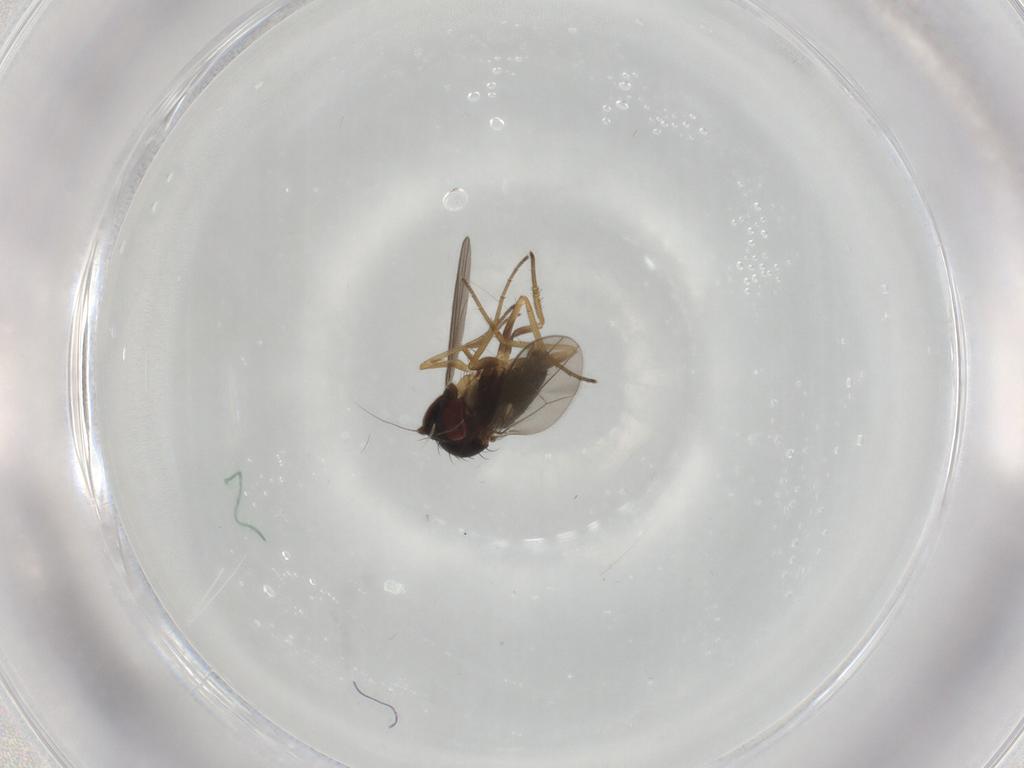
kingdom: Animalia
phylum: Arthropoda
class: Insecta
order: Diptera
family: Dolichopodidae
